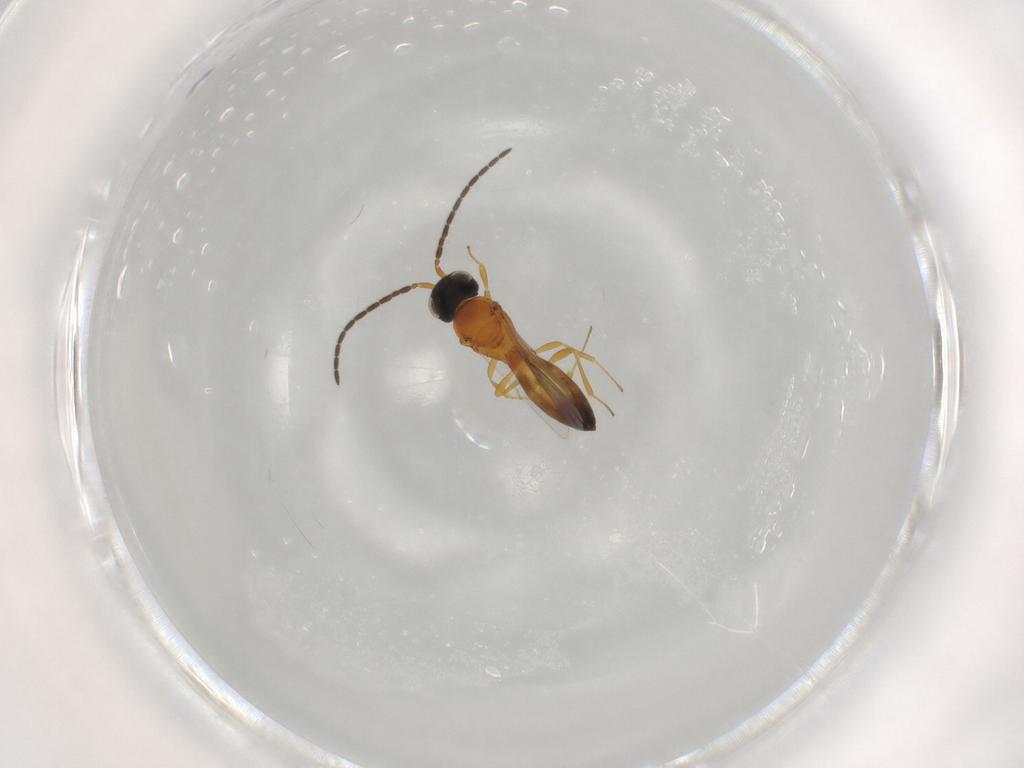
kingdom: Animalia
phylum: Arthropoda
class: Insecta
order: Hymenoptera
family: Scelionidae
